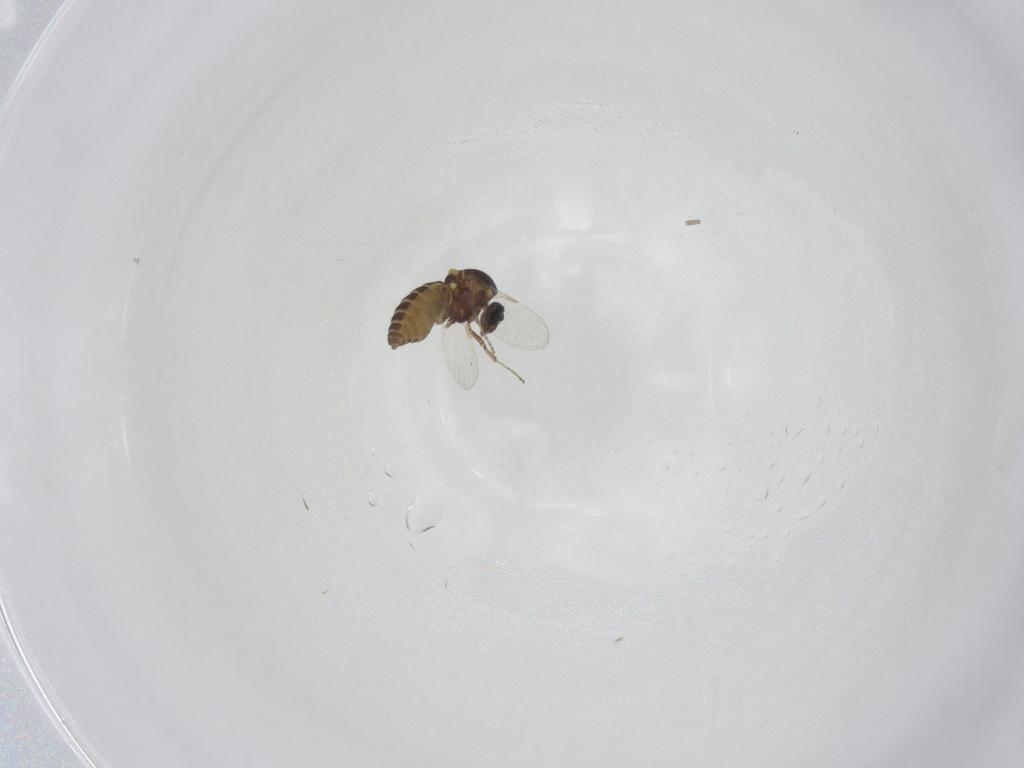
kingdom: Animalia
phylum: Arthropoda
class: Insecta
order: Diptera
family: Ceratopogonidae
